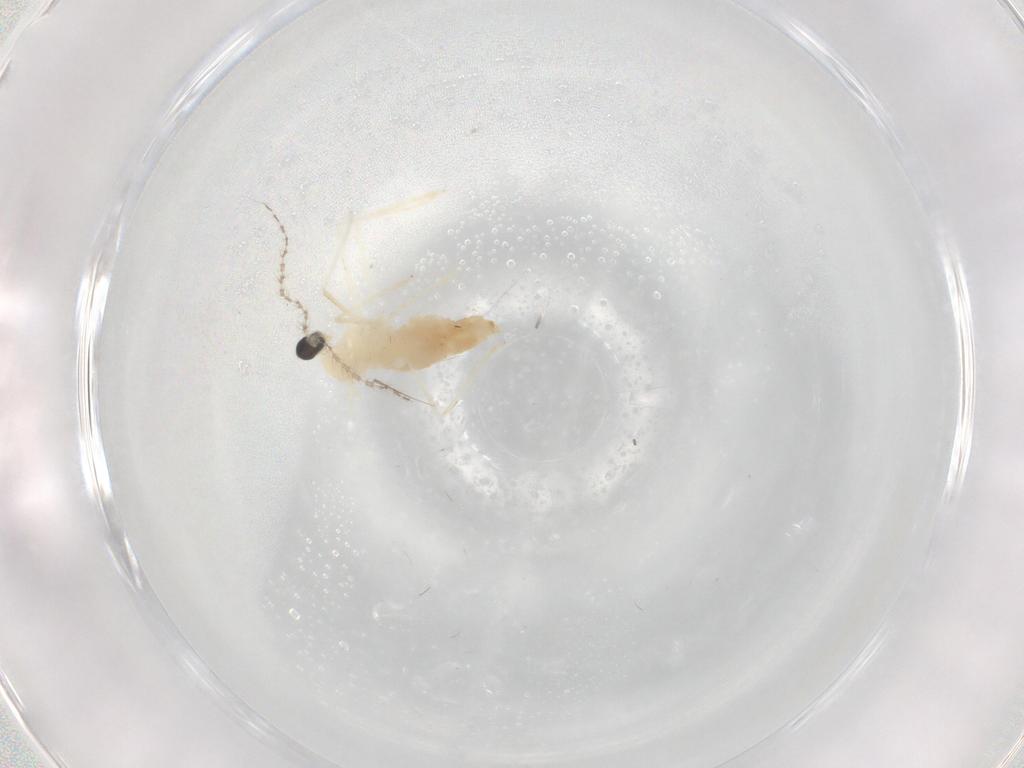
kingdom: Animalia
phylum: Arthropoda
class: Insecta
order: Diptera
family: Cecidomyiidae
